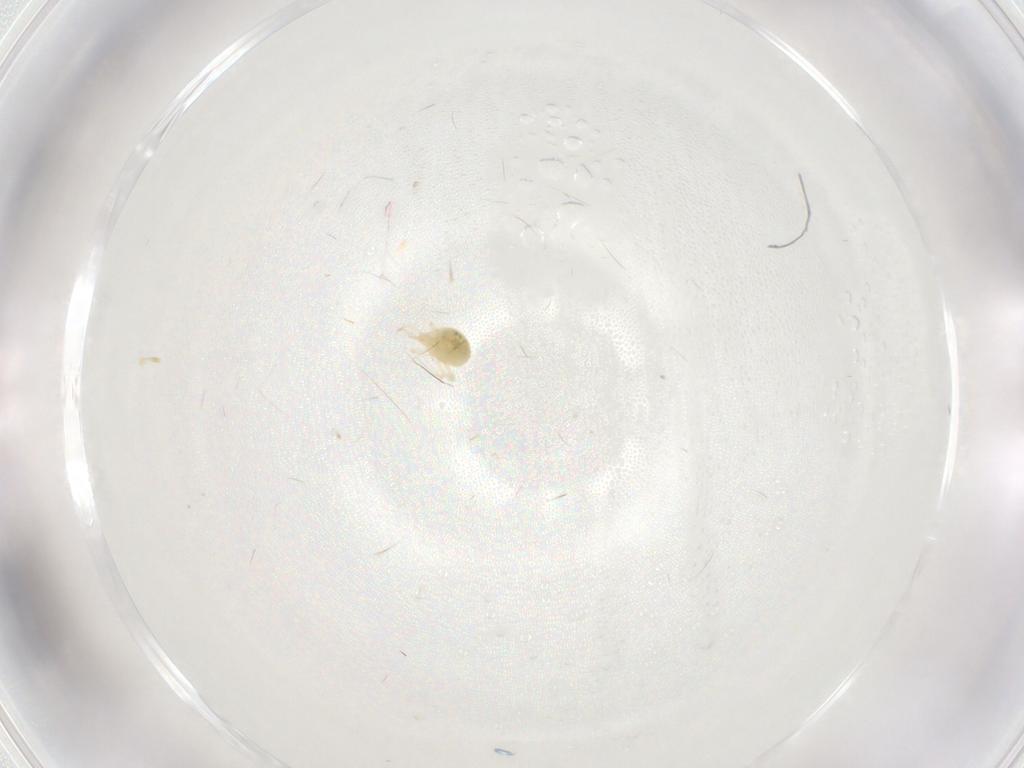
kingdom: Animalia
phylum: Arthropoda
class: Arachnida
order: Trombidiformes
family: Cunaxidae
